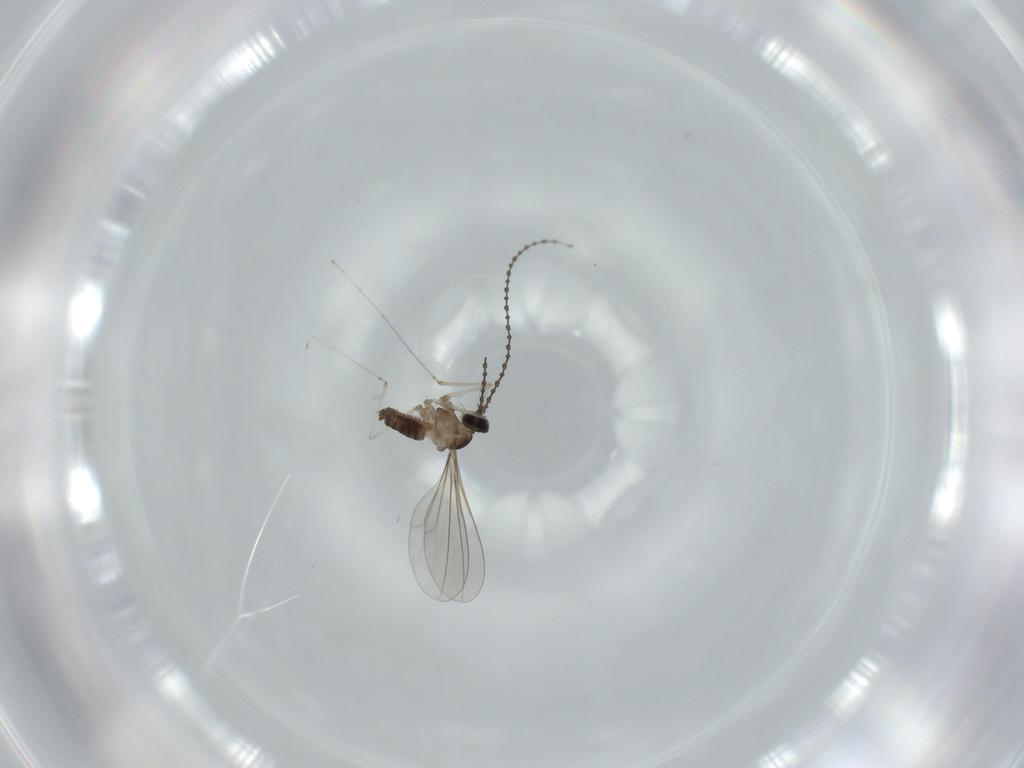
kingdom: Animalia
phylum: Arthropoda
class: Insecta
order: Diptera
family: Cecidomyiidae
